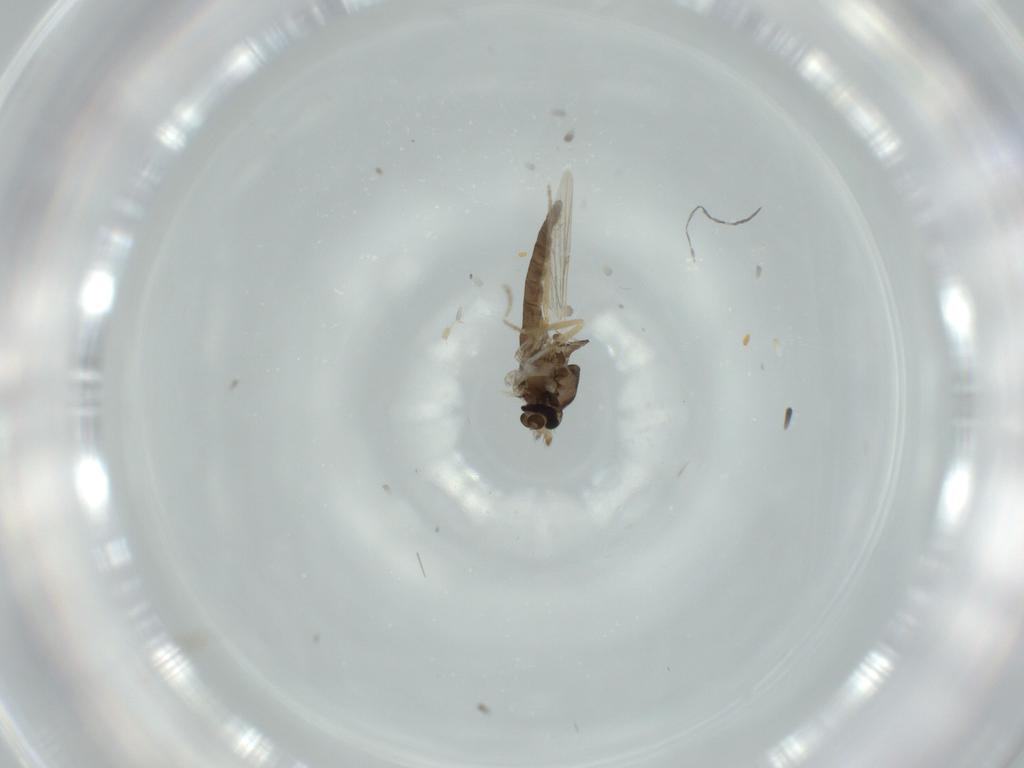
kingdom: Animalia
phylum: Arthropoda
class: Insecta
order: Diptera
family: Ceratopogonidae
